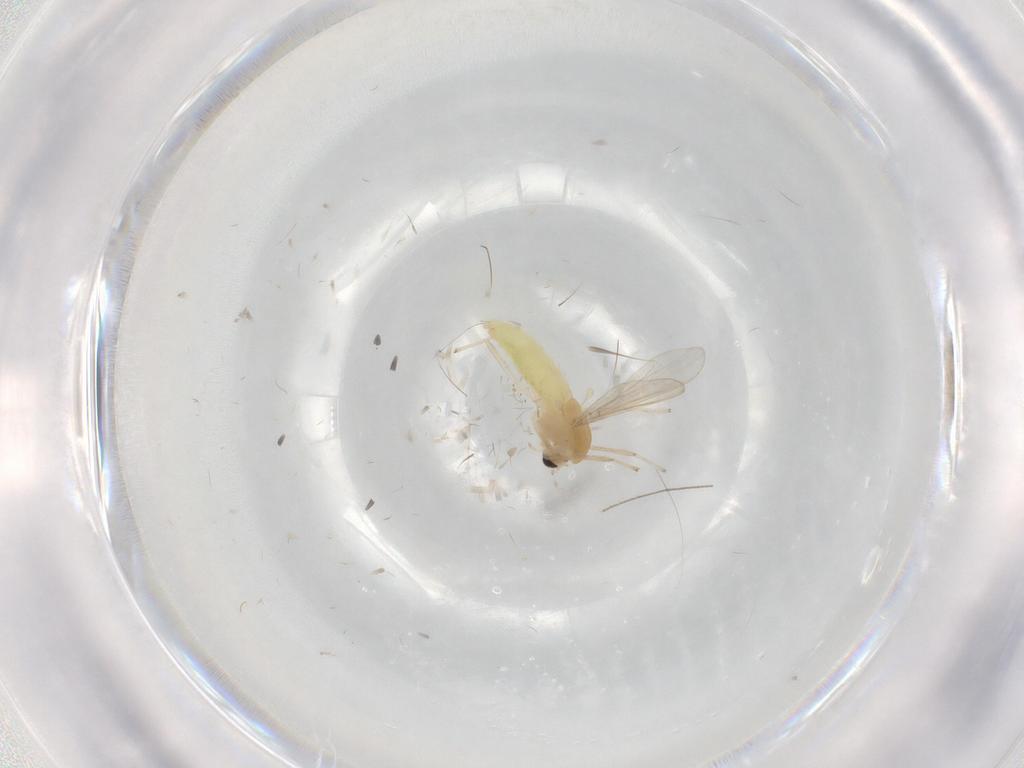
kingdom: Animalia
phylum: Arthropoda
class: Insecta
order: Diptera
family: Chironomidae
